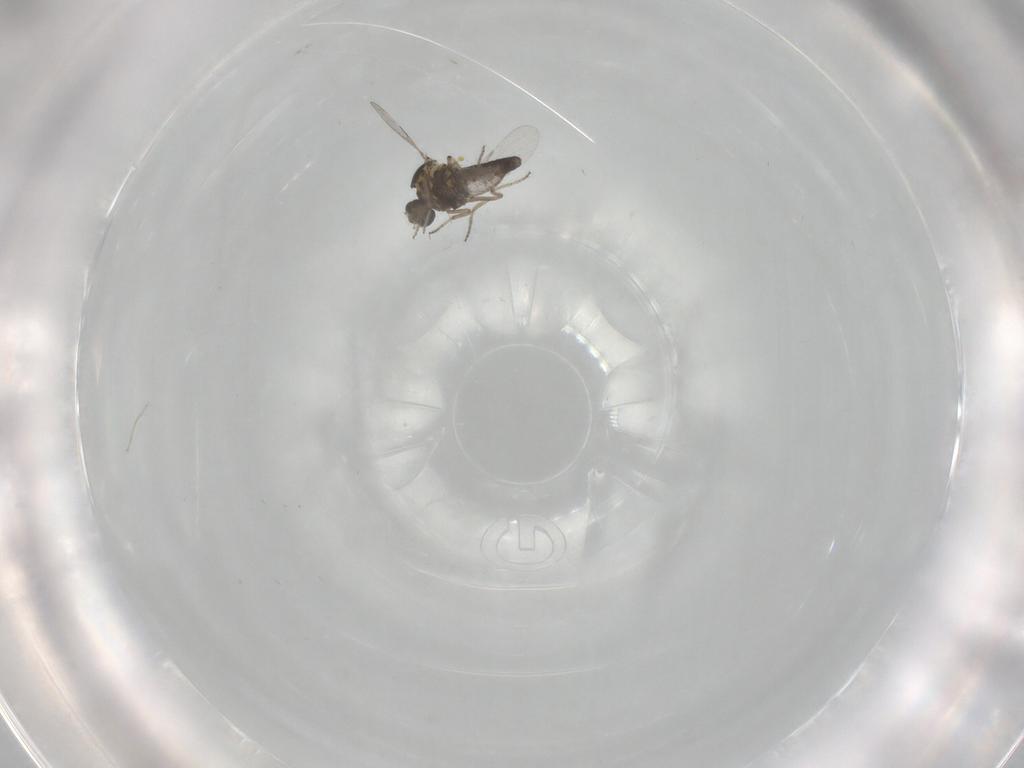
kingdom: Animalia
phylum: Arthropoda
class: Insecta
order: Diptera
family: Ceratopogonidae
